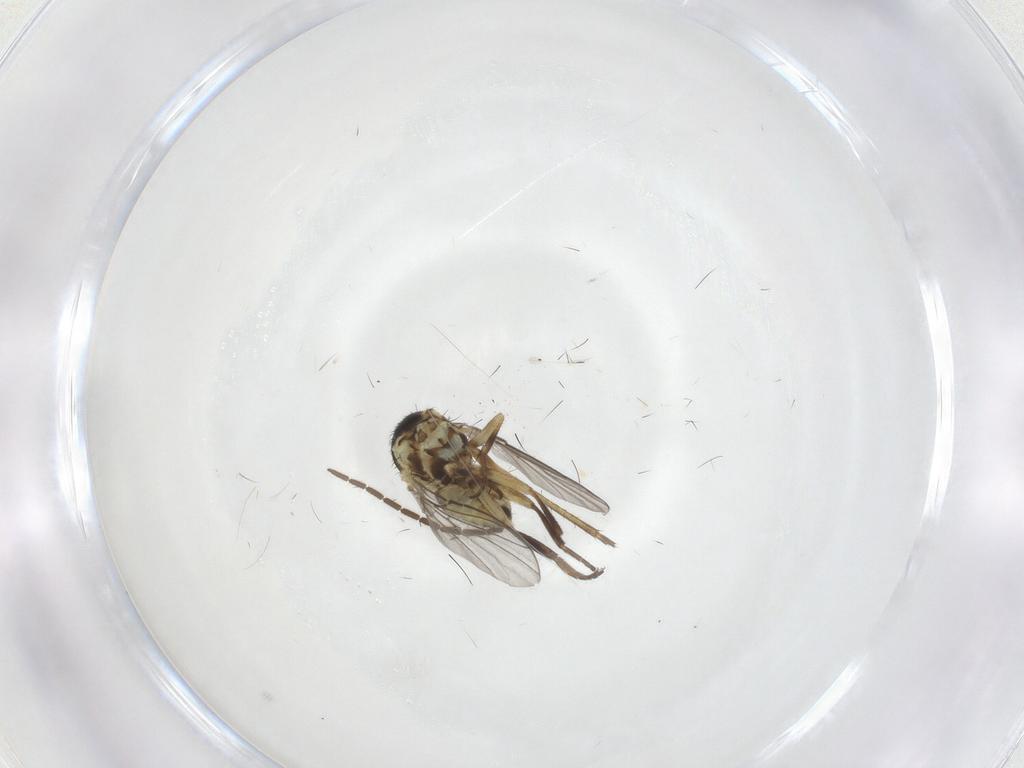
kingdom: Animalia
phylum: Arthropoda
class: Insecta
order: Diptera
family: Agromyzidae
